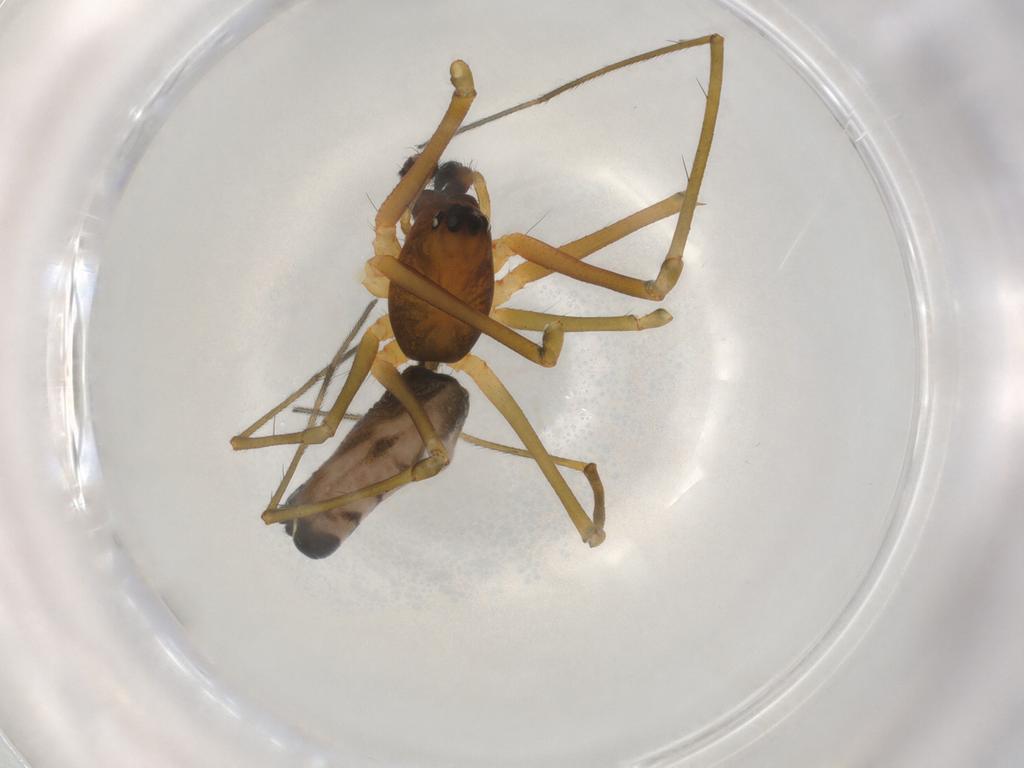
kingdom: Animalia
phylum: Arthropoda
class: Arachnida
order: Araneae
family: Theridiidae
